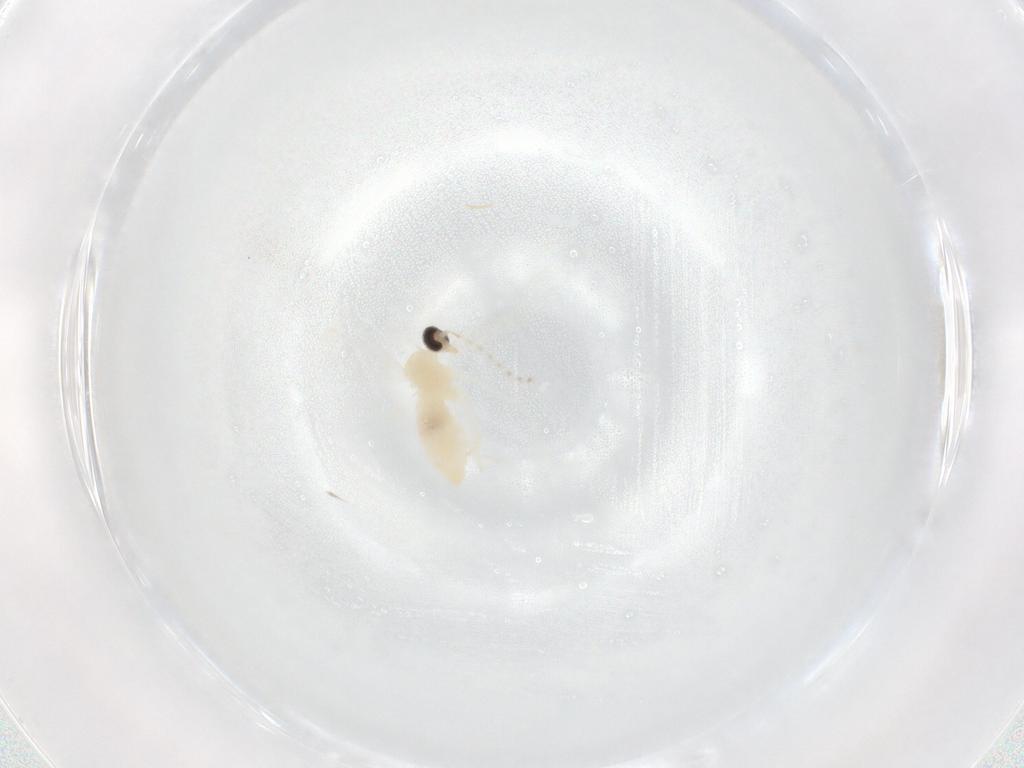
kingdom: Animalia
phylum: Arthropoda
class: Insecta
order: Diptera
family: Cecidomyiidae
